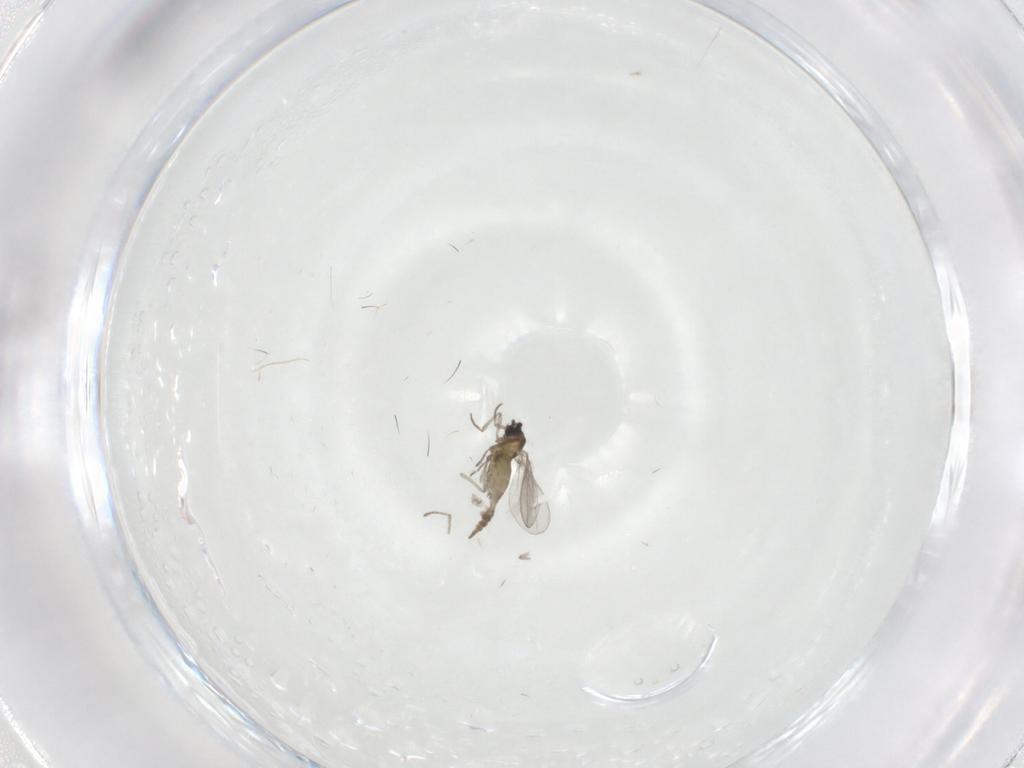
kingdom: Animalia
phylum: Arthropoda
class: Insecta
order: Diptera
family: Cecidomyiidae
